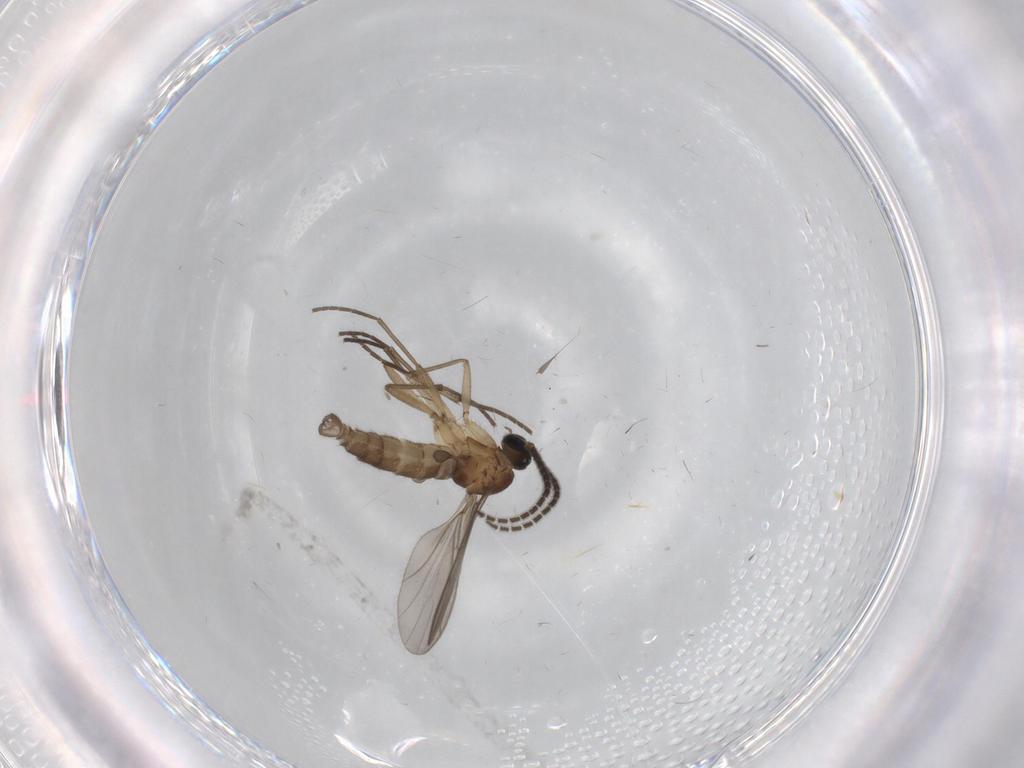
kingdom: Animalia
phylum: Arthropoda
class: Insecta
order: Diptera
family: Sciaridae
